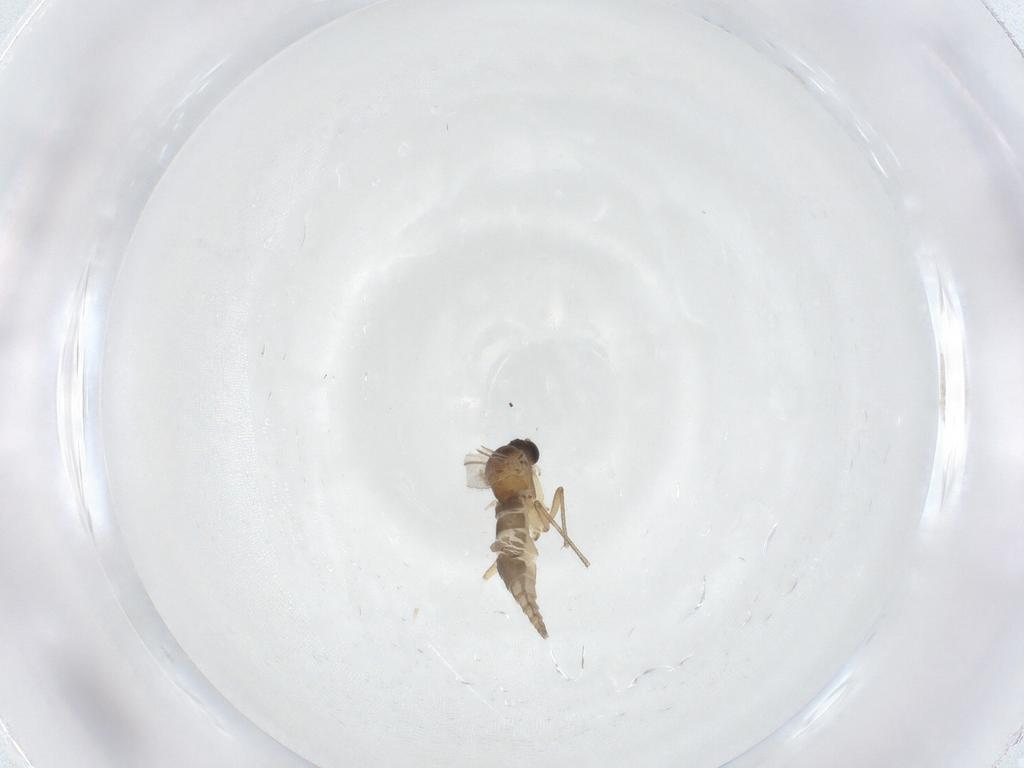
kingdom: Animalia
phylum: Arthropoda
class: Insecta
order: Diptera
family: Sciaridae
